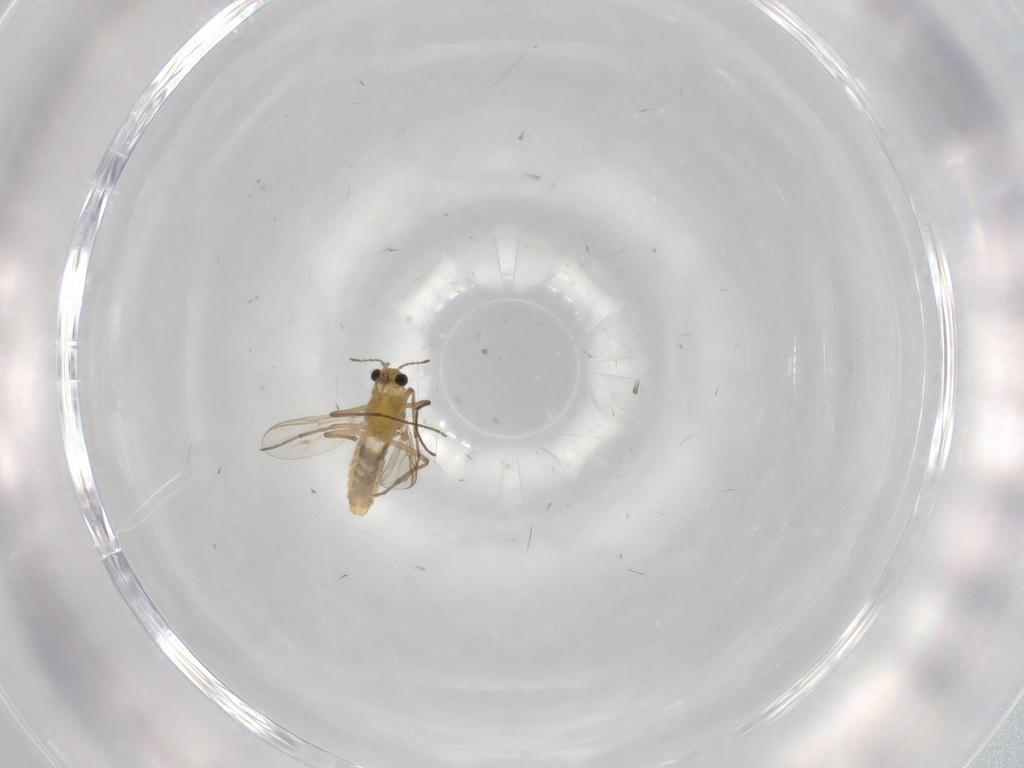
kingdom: Animalia
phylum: Arthropoda
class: Insecta
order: Diptera
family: Chironomidae
